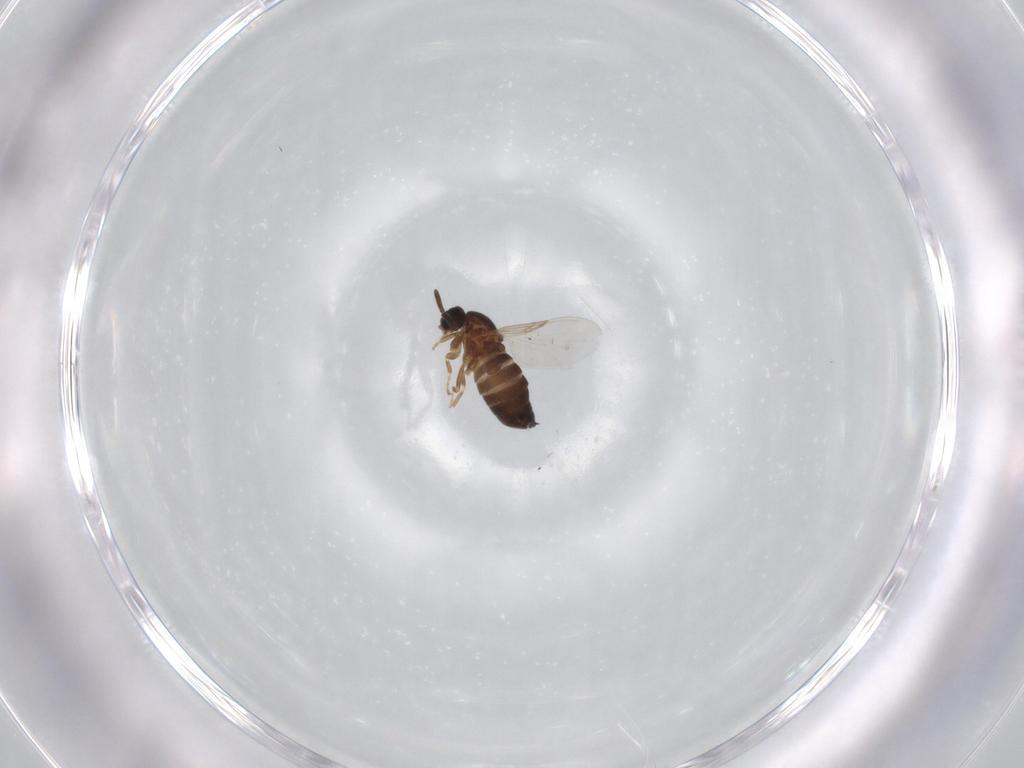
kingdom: Animalia
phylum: Arthropoda
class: Insecta
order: Diptera
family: Scatopsidae
